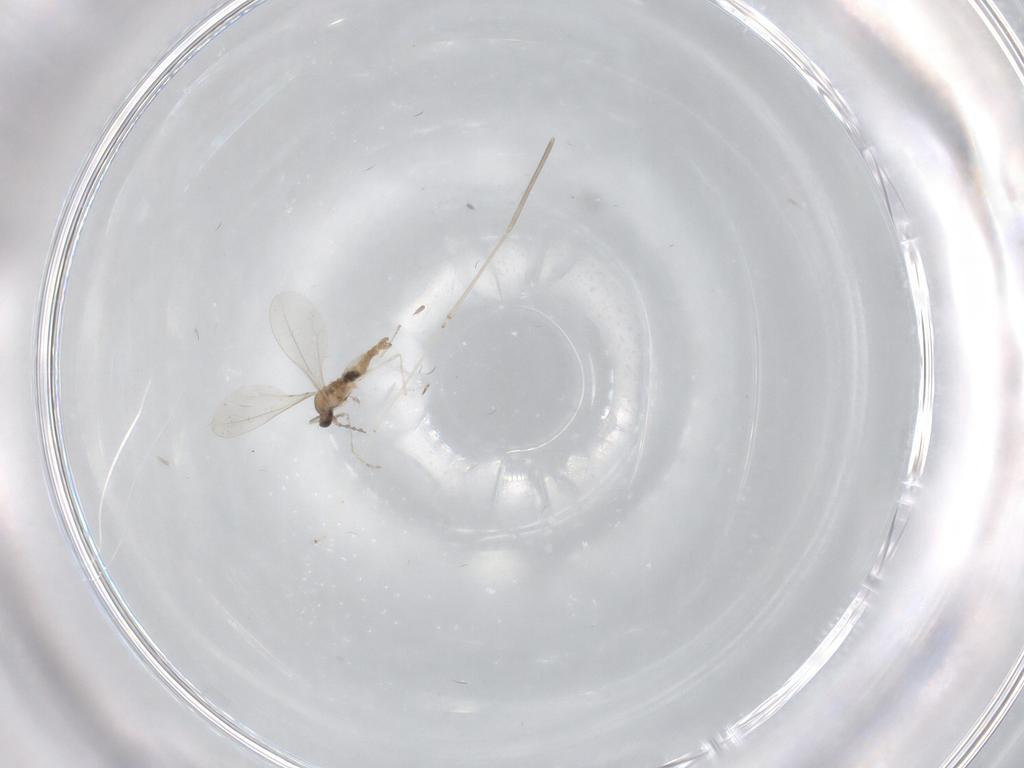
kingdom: Animalia
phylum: Arthropoda
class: Insecta
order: Diptera
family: Cecidomyiidae
